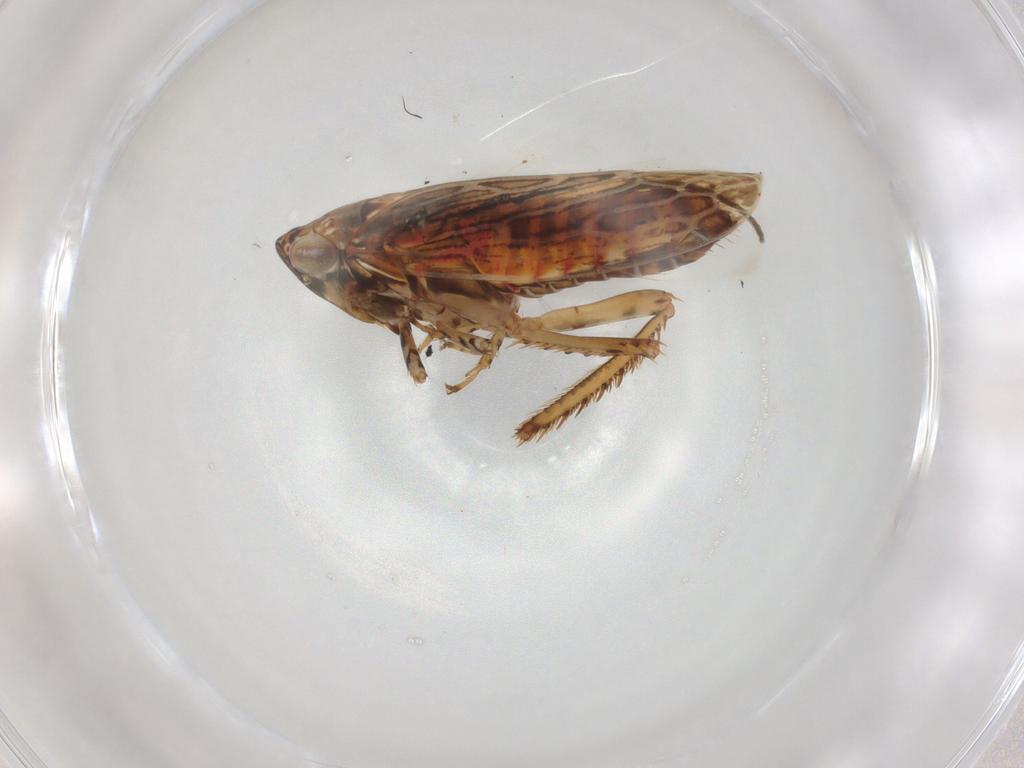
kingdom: Animalia
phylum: Arthropoda
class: Insecta
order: Hemiptera
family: Cicadellidae
